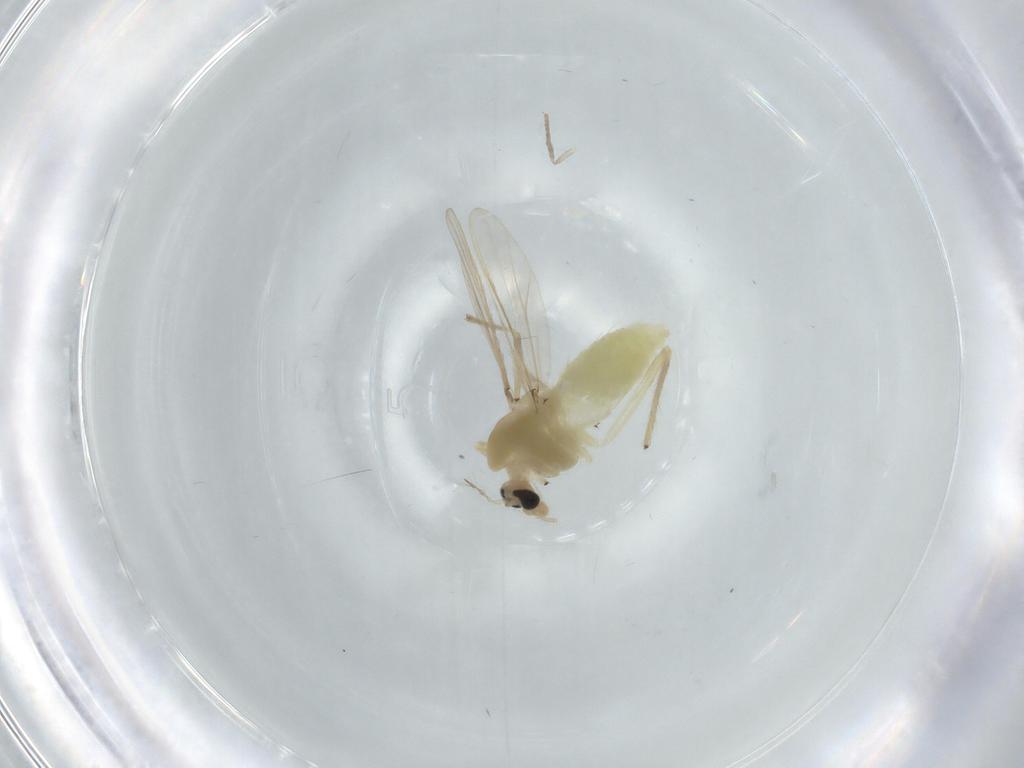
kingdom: Animalia
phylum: Arthropoda
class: Insecta
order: Diptera
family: Chironomidae
